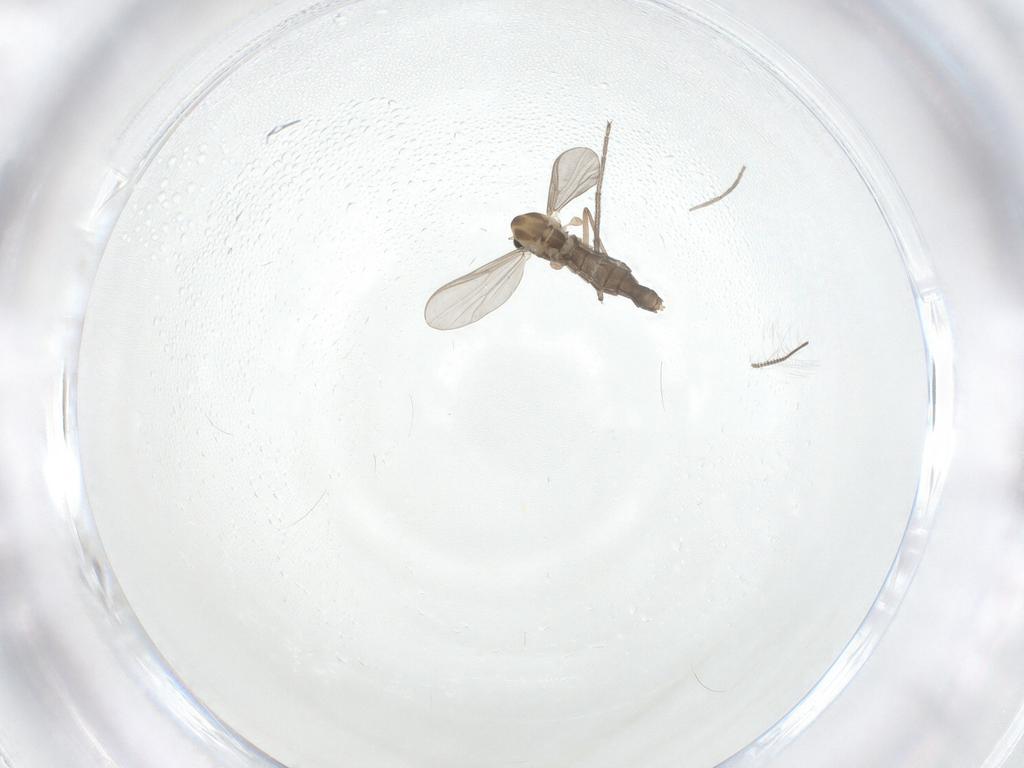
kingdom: Animalia
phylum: Arthropoda
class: Insecta
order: Diptera
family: Chironomidae
